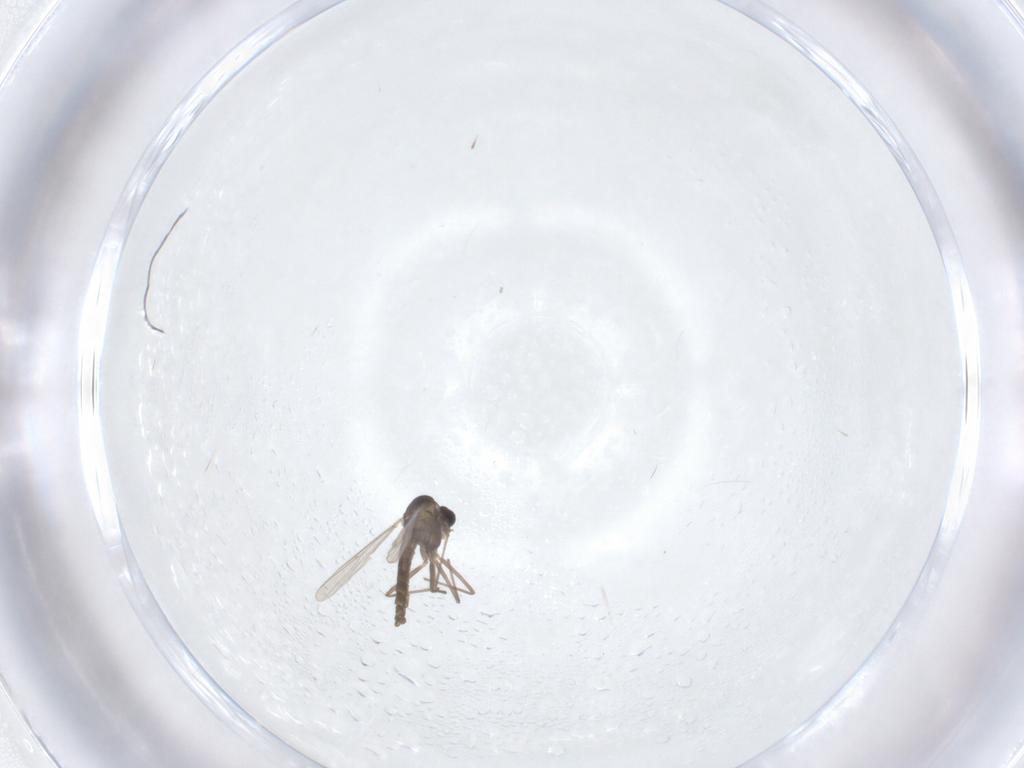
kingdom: Animalia
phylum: Arthropoda
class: Insecta
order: Diptera
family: Chironomidae
